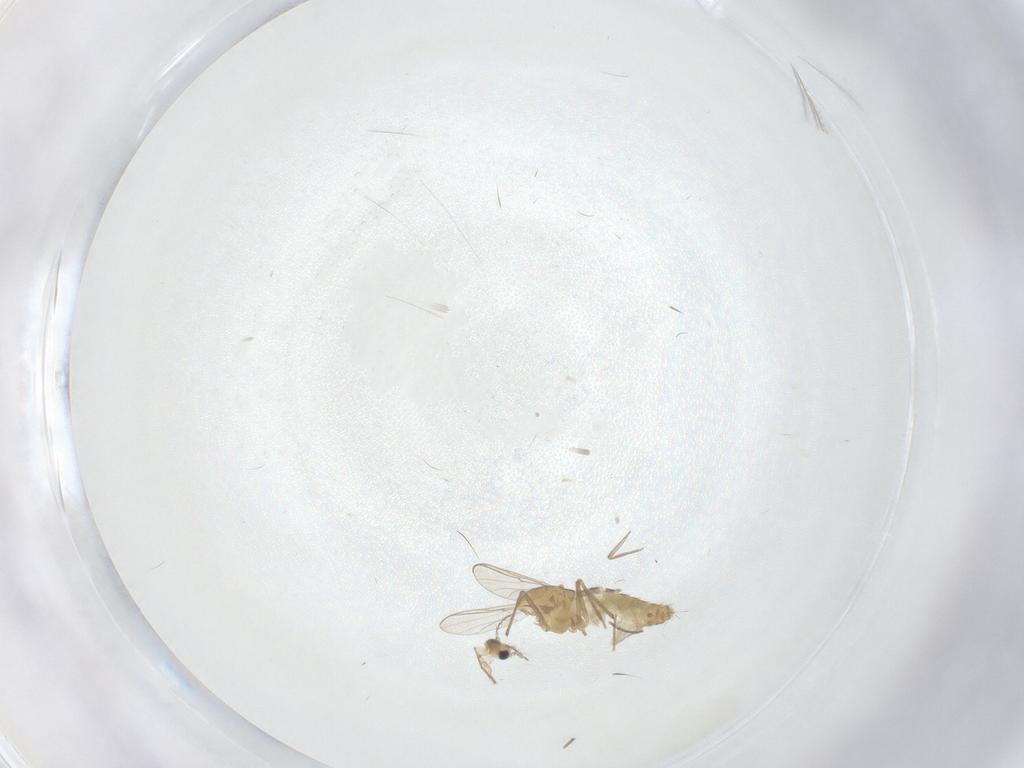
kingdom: Animalia
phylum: Arthropoda
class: Insecta
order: Diptera
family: Chironomidae
